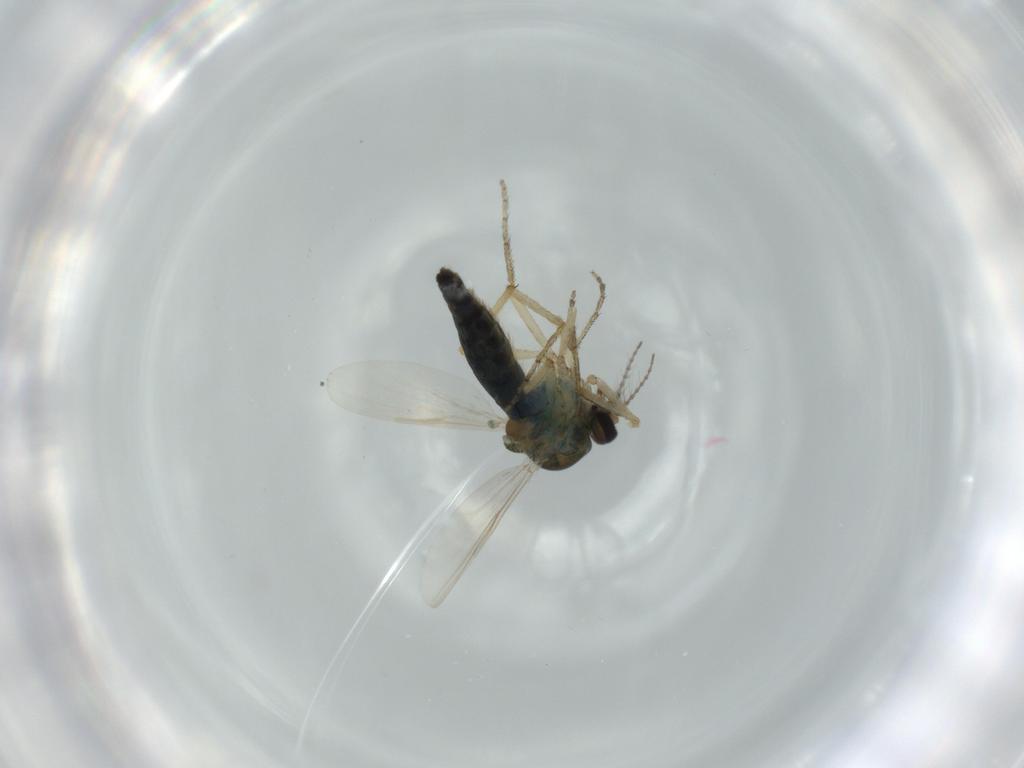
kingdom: Animalia
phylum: Arthropoda
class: Insecta
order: Diptera
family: Ceratopogonidae
